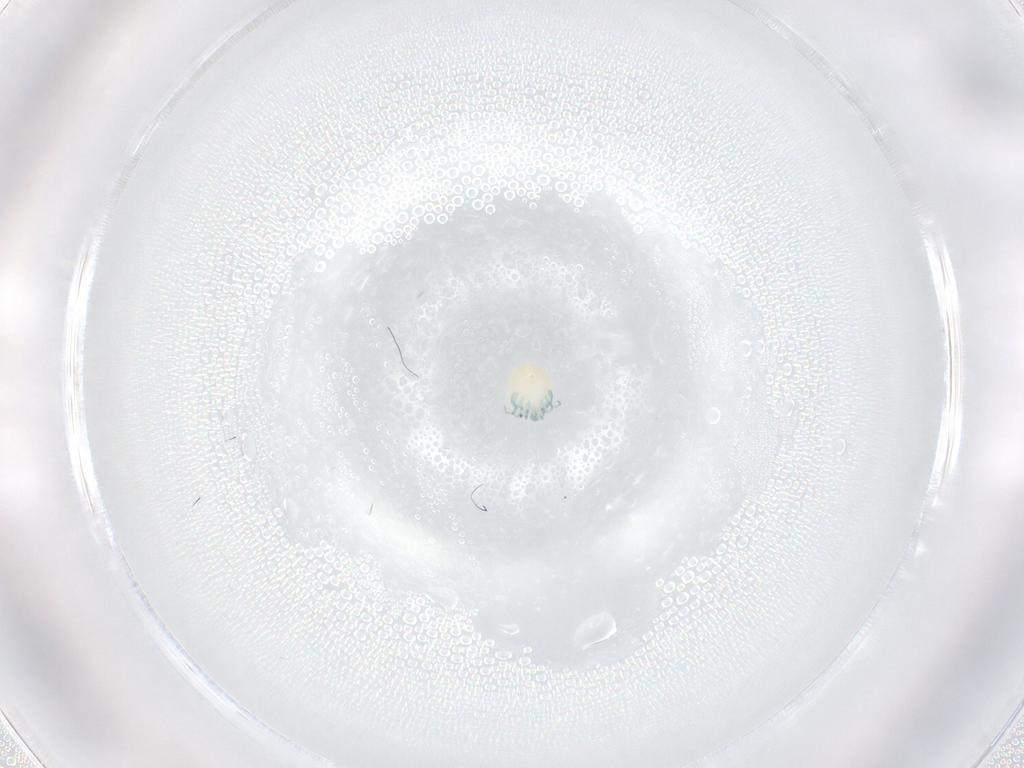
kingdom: Animalia
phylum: Arthropoda
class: Arachnida
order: Trombidiformes
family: Arrenuridae
